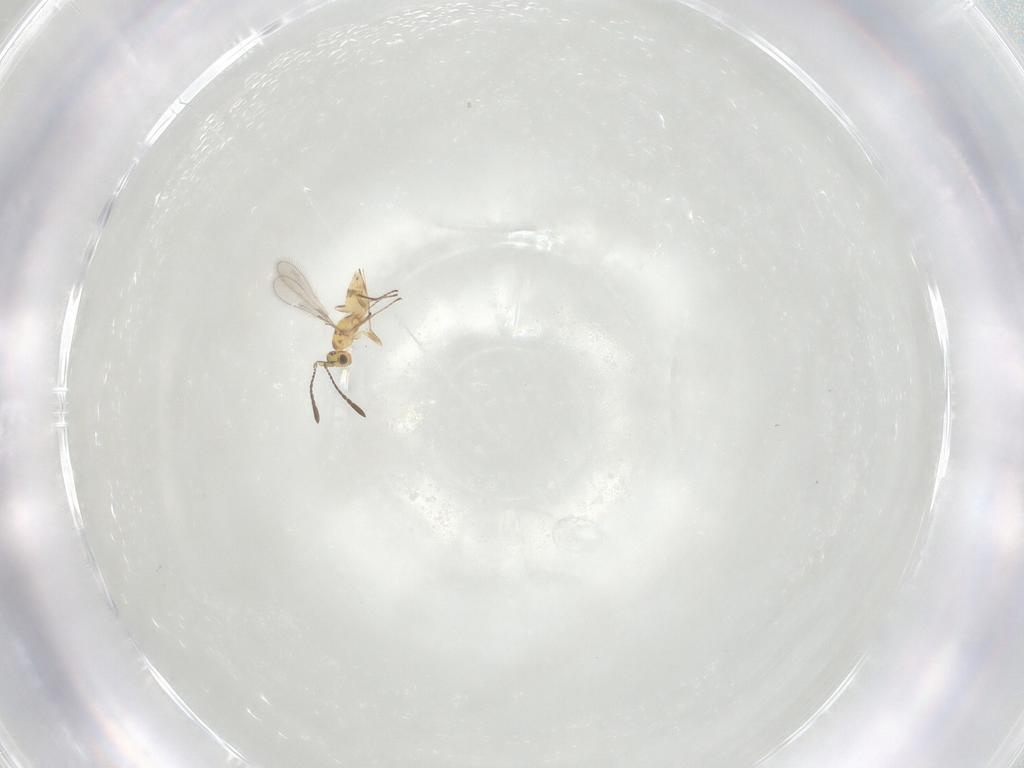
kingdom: Animalia
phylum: Arthropoda
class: Insecta
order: Hymenoptera
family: Mymaridae
